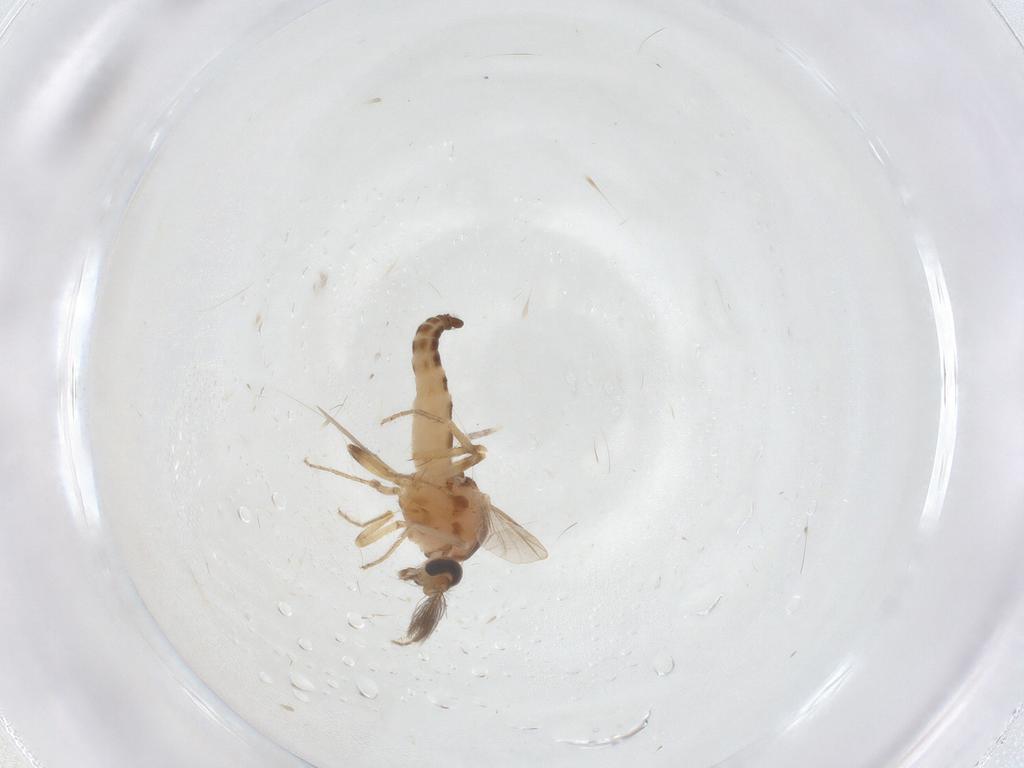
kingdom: Animalia
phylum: Arthropoda
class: Insecta
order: Diptera
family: Ceratopogonidae
